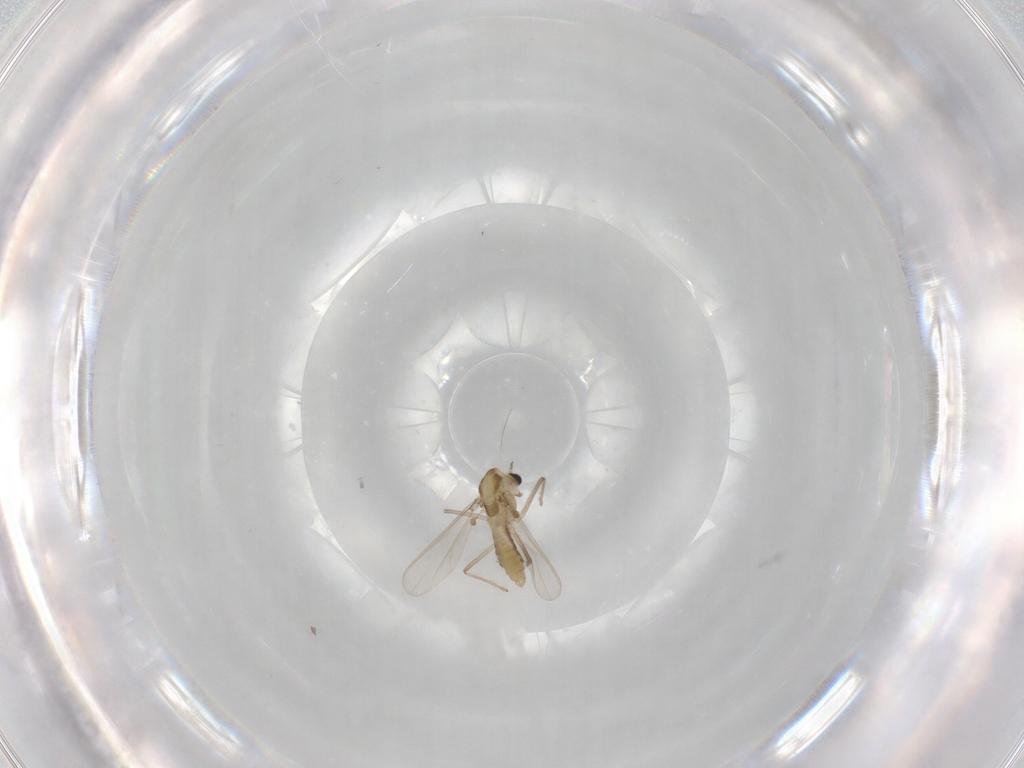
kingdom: Animalia
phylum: Arthropoda
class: Insecta
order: Diptera
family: Chironomidae
